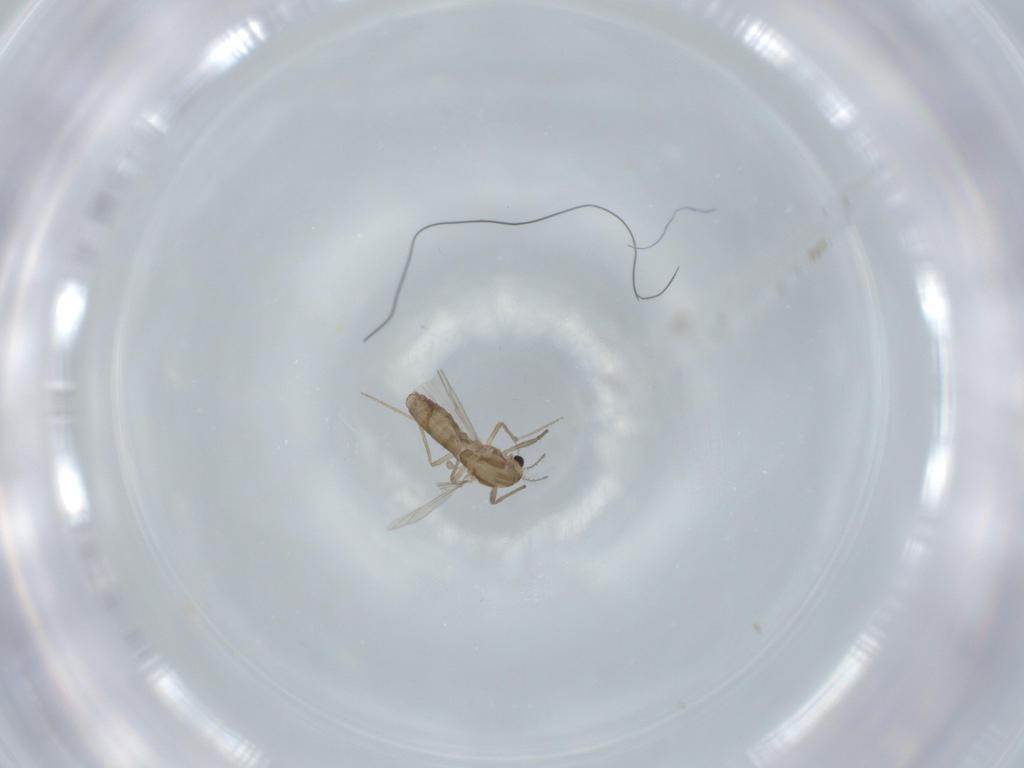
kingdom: Animalia
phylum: Arthropoda
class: Insecta
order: Diptera
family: Chironomidae
